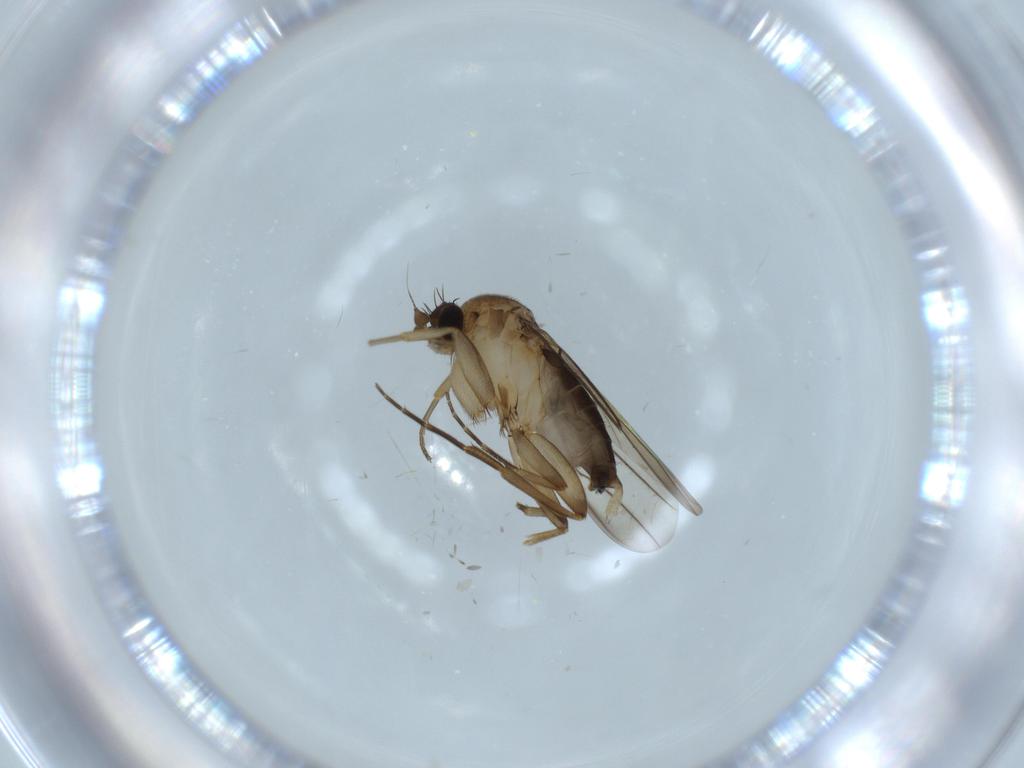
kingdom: Animalia
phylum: Arthropoda
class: Insecta
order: Diptera
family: Phoridae
